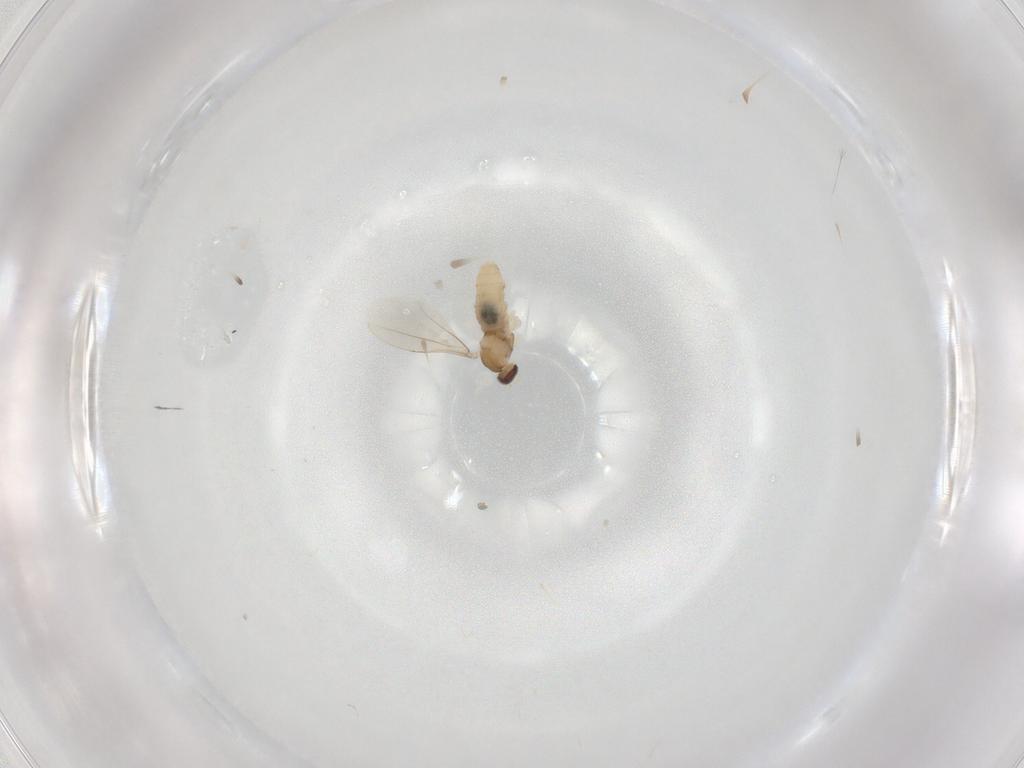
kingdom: Animalia
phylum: Arthropoda
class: Insecta
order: Diptera
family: Cecidomyiidae
